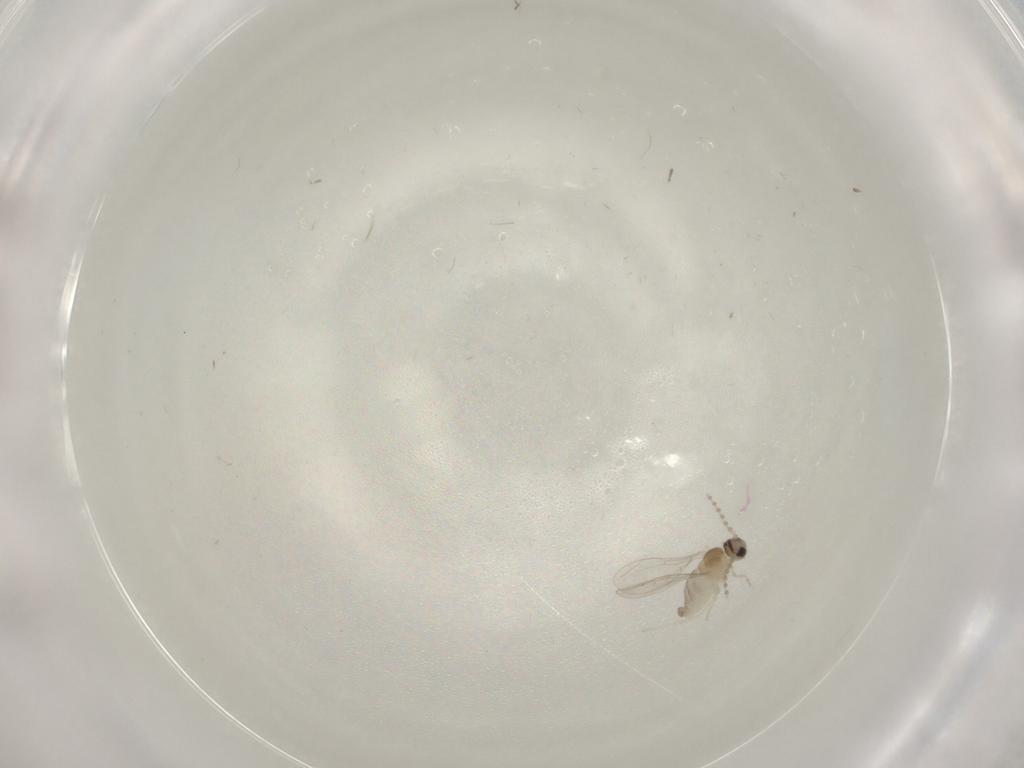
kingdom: Animalia
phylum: Arthropoda
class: Insecta
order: Diptera
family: Cecidomyiidae
